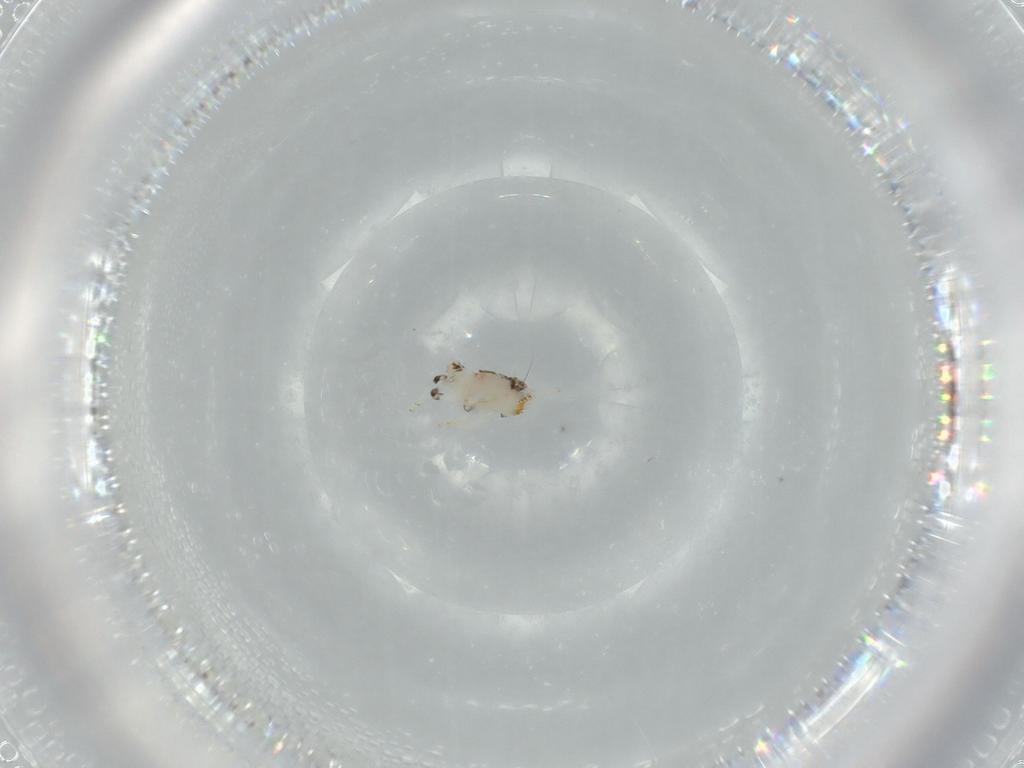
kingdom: Animalia
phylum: Arthropoda
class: Insecta
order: Hemiptera
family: Nogodinidae
